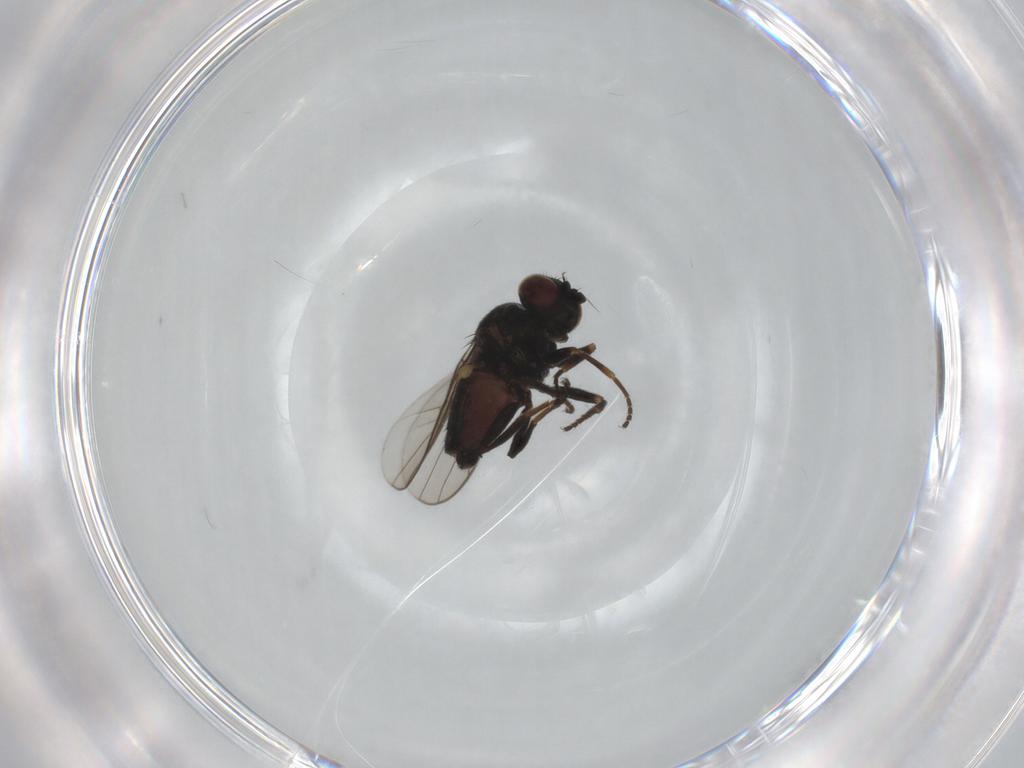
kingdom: Animalia
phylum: Arthropoda
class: Insecta
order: Diptera
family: Chloropidae
